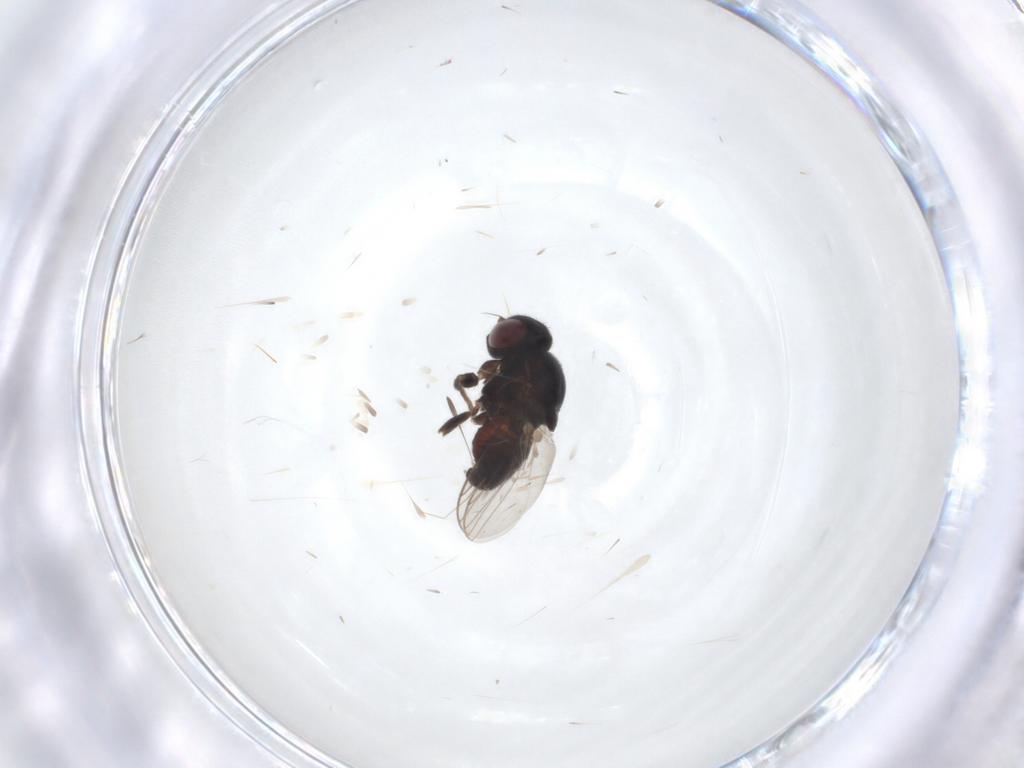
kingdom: Animalia
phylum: Arthropoda
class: Insecta
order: Diptera
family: Chloropidae
